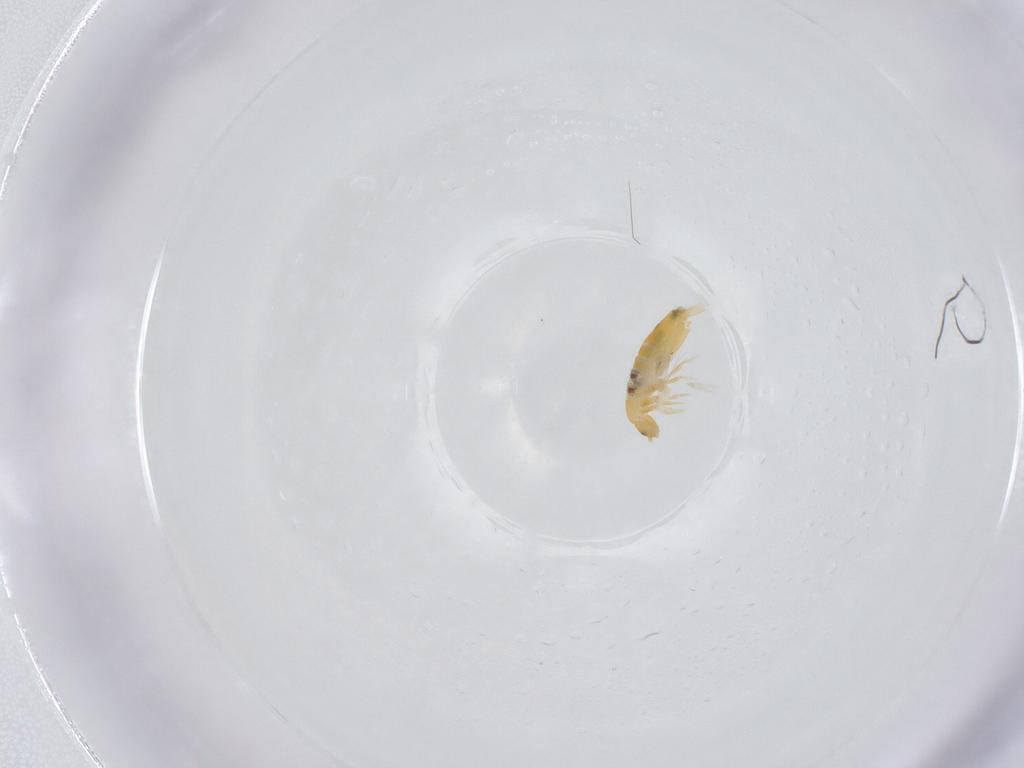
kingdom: Animalia
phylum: Arthropoda
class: Collembola
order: Entomobryomorpha
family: Entomobryidae
